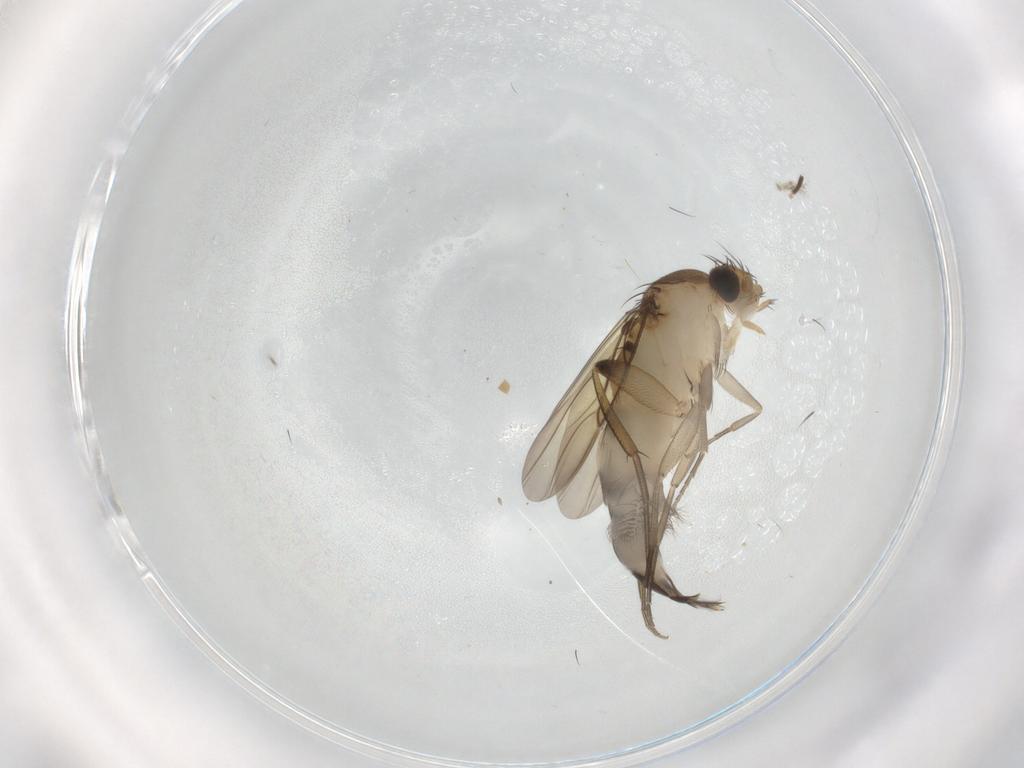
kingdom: Animalia
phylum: Arthropoda
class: Insecta
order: Diptera
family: Phoridae
